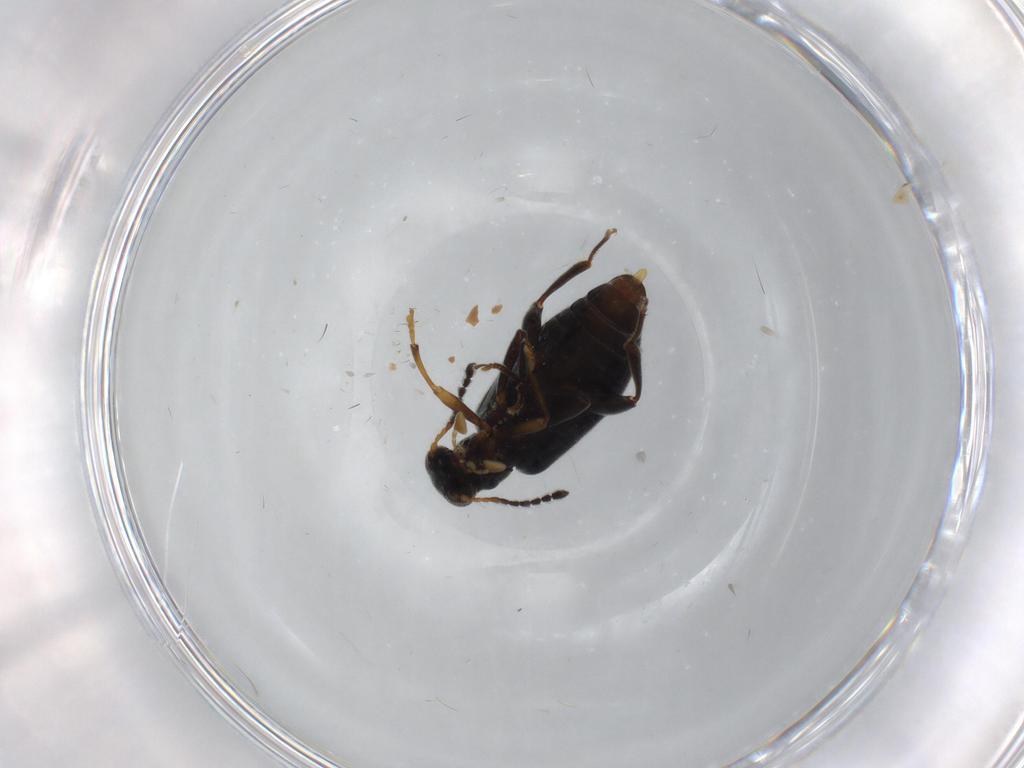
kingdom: Animalia
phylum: Arthropoda
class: Insecta
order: Coleoptera
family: Aderidae
